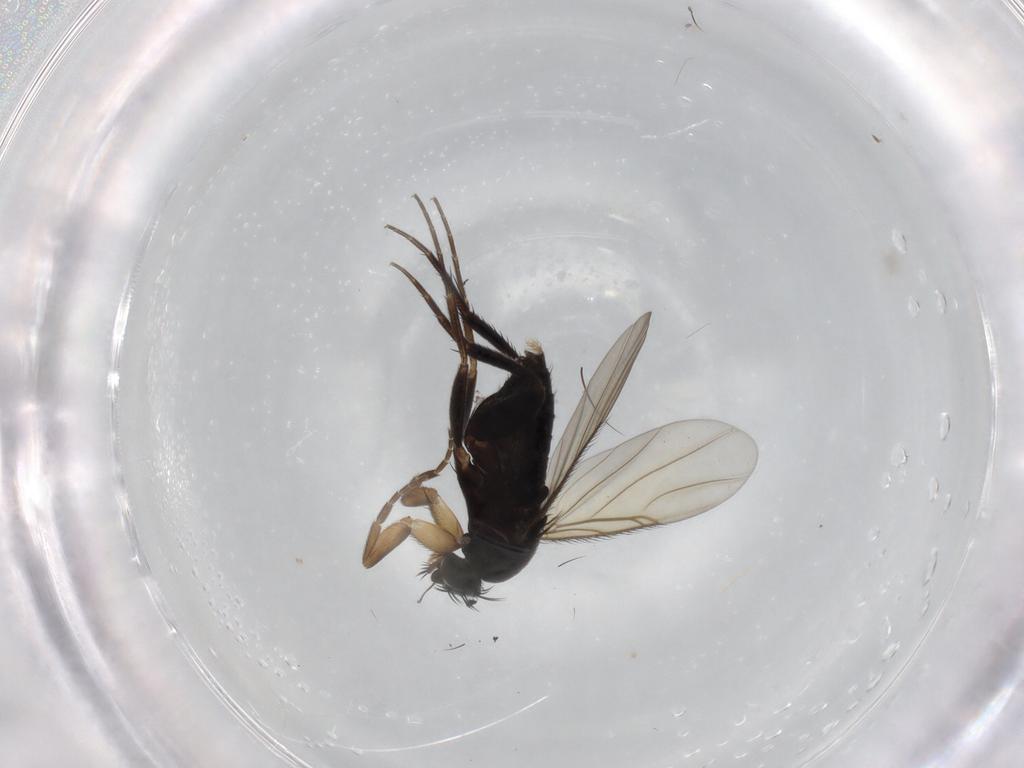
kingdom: Animalia
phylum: Arthropoda
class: Insecta
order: Diptera
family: Phoridae
